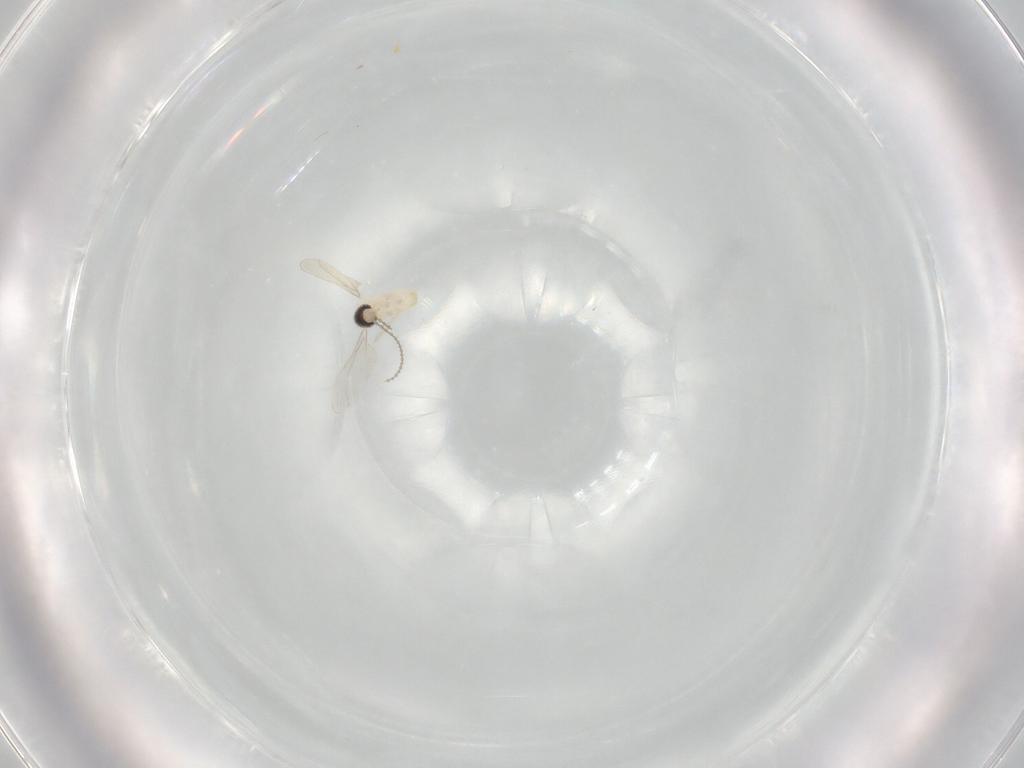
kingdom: Animalia
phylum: Arthropoda
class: Insecta
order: Diptera
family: Cecidomyiidae
